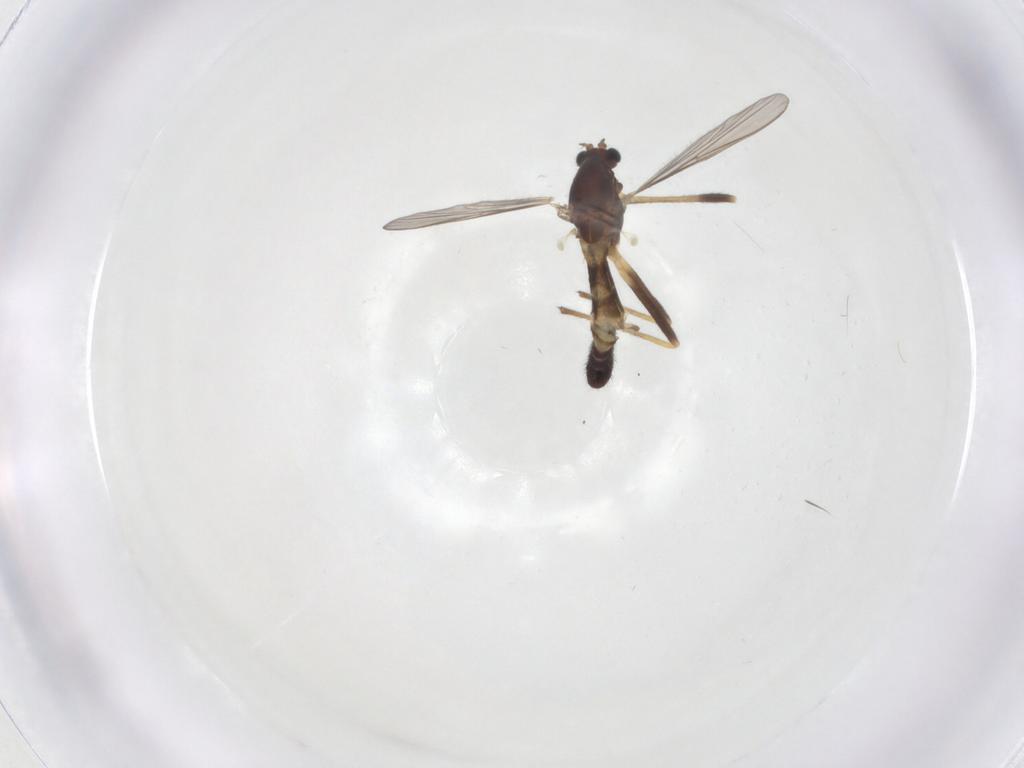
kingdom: Animalia
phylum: Arthropoda
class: Insecta
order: Diptera
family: Chironomidae
